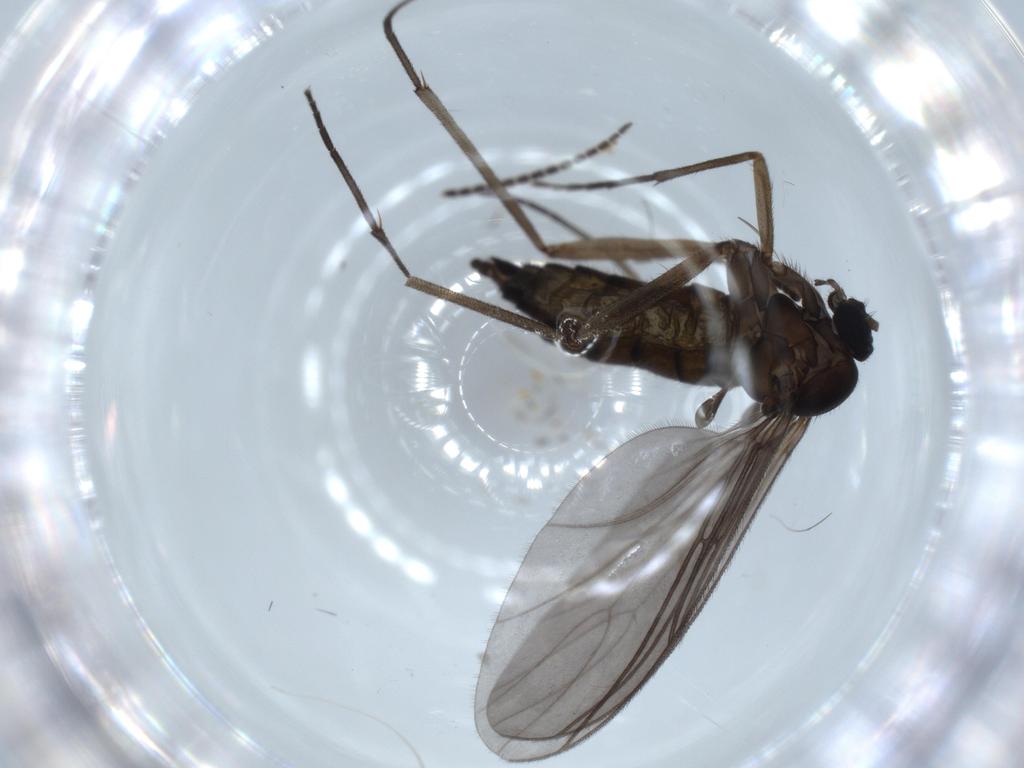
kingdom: Animalia
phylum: Arthropoda
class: Insecta
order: Diptera
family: Sciaridae
